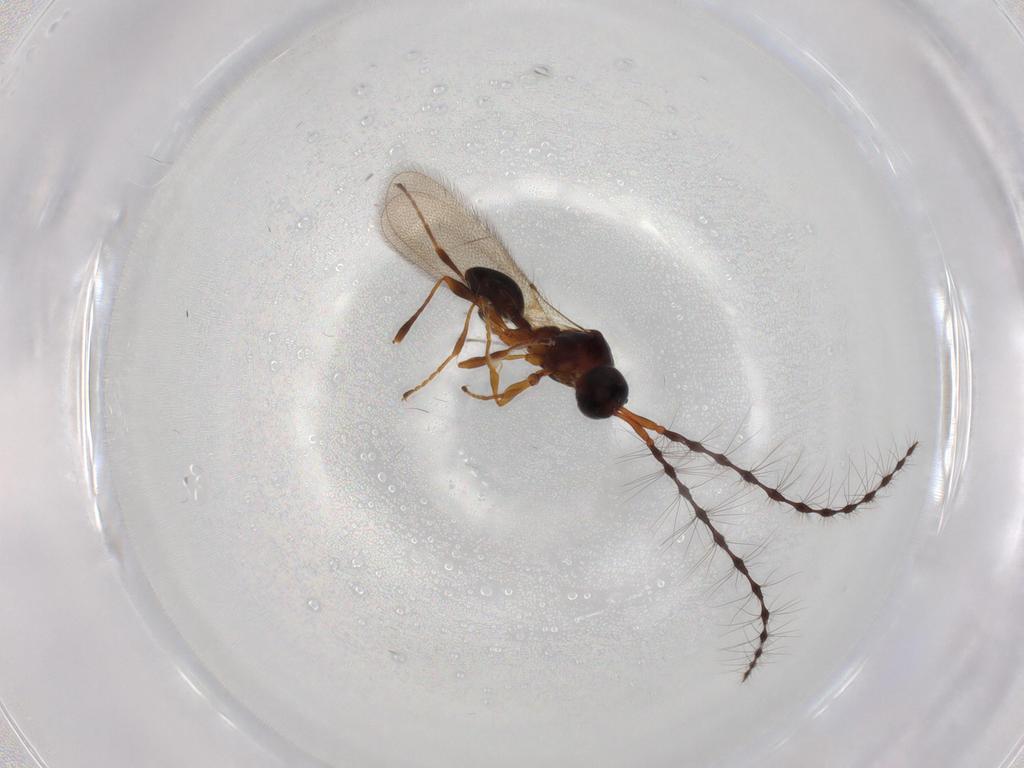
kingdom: Animalia
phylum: Arthropoda
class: Insecta
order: Hymenoptera
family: Diapriidae
